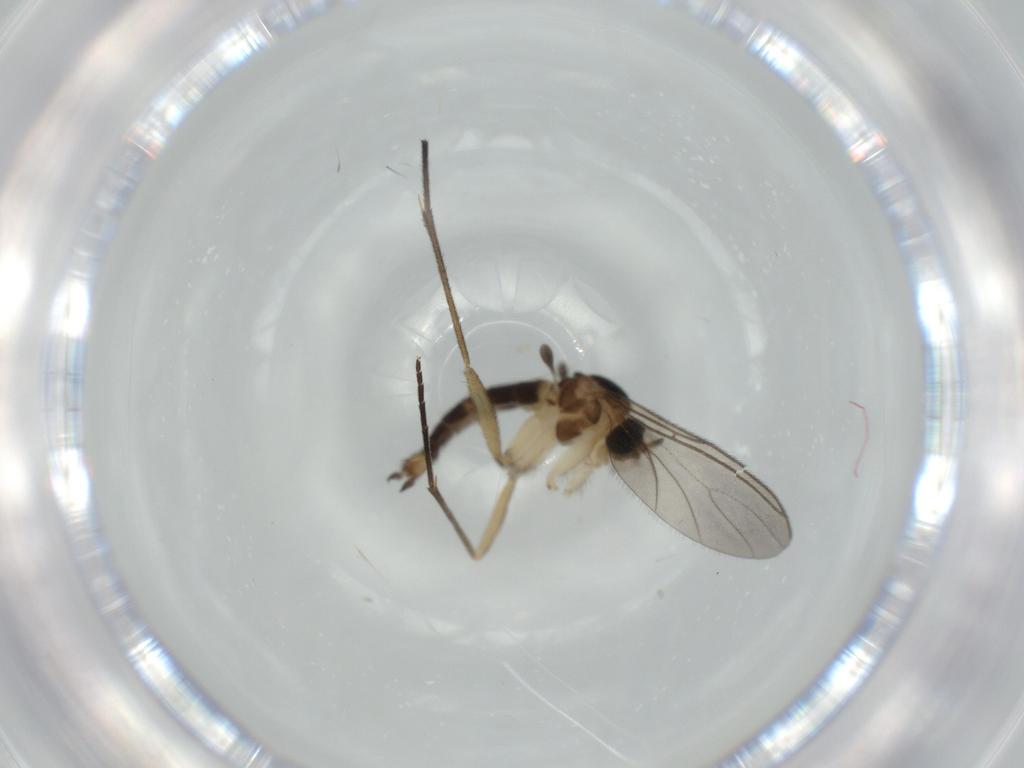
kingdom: Animalia
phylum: Arthropoda
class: Insecta
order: Diptera
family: Sciaridae
